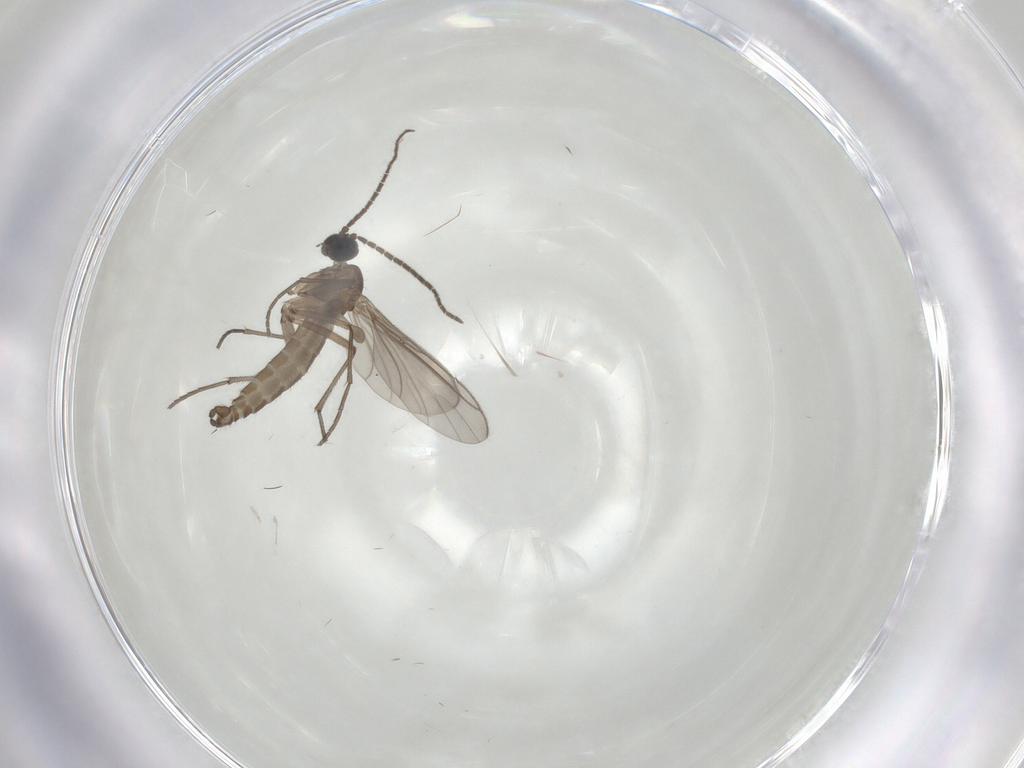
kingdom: Animalia
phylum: Arthropoda
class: Insecta
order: Diptera
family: Sciaridae
